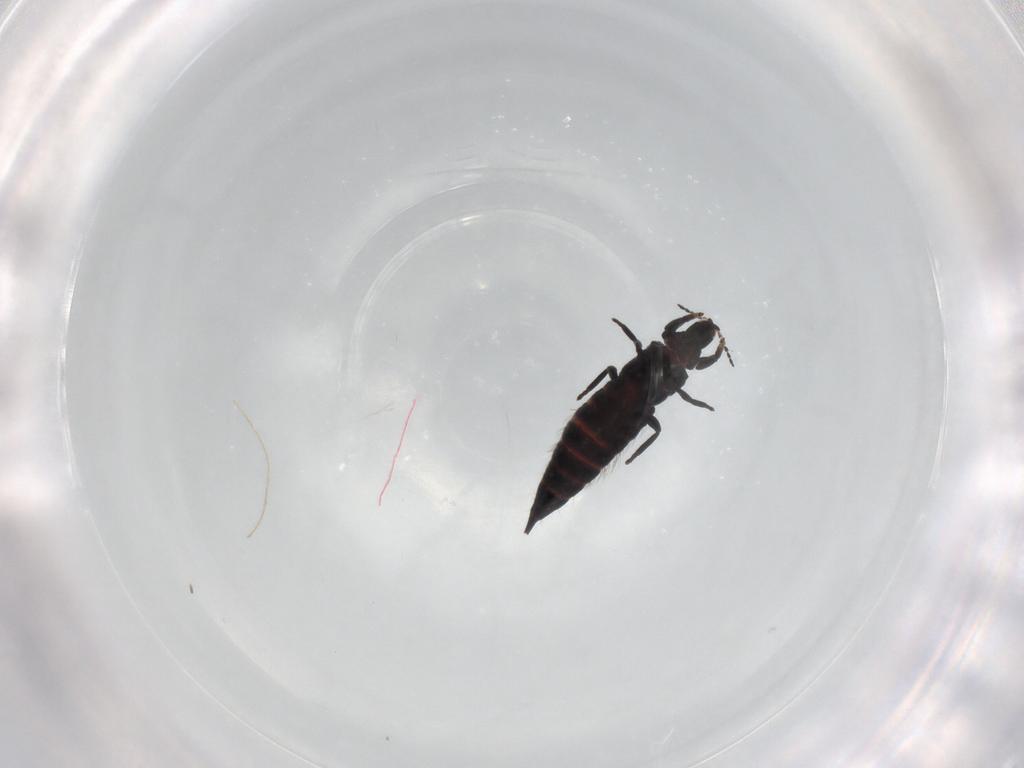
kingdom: Animalia
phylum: Arthropoda
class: Insecta
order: Thysanoptera
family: Phlaeothripidae
